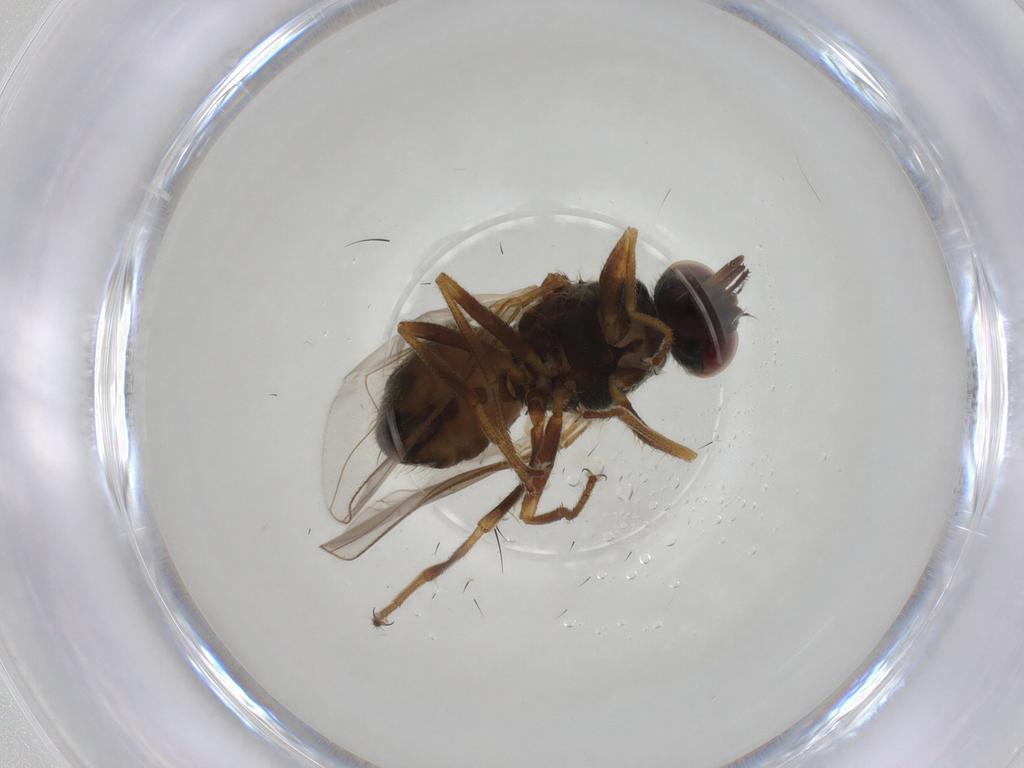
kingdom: Animalia
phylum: Arthropoda
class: Insecta
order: Diptera
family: Muscidae
